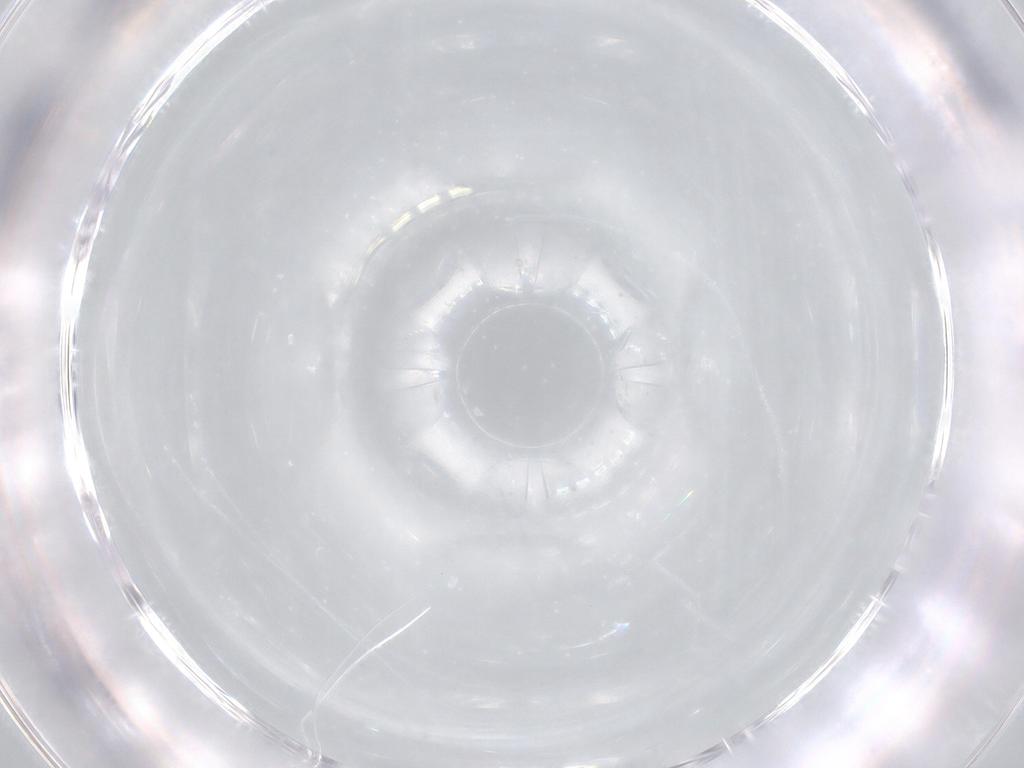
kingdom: Animalia
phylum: Arthropoda
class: Insecta
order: Diptera
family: Chironomidae
